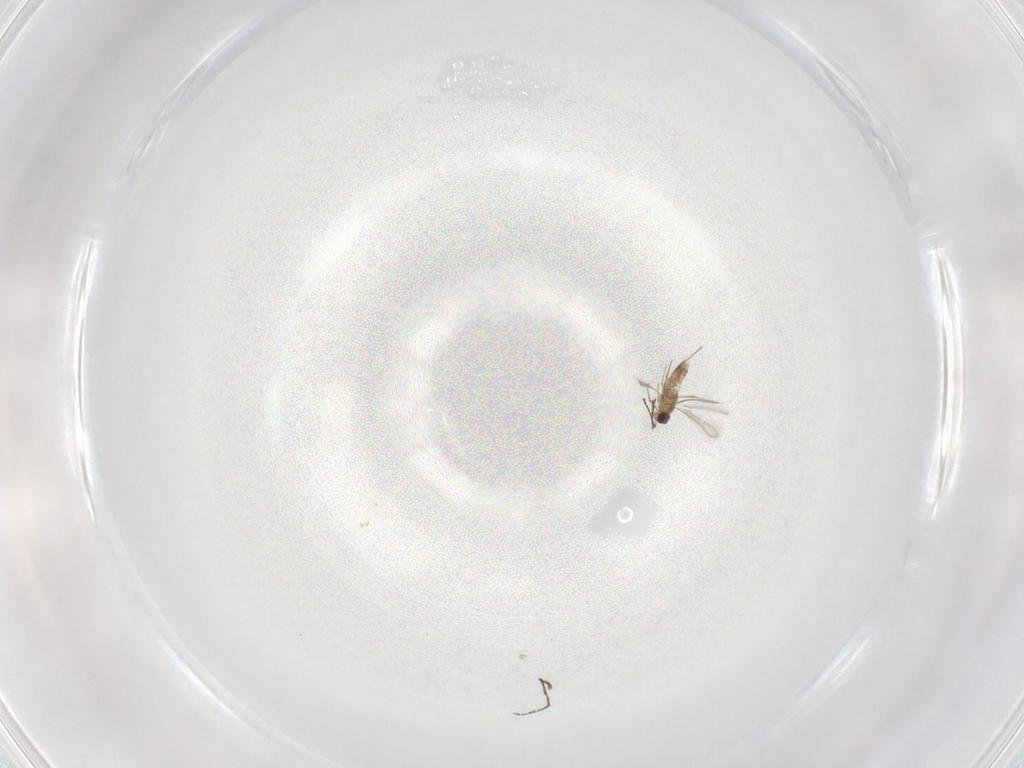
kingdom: Animalia
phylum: Arthropoda
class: Insecta
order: Hymenoptera
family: Mymaridae
